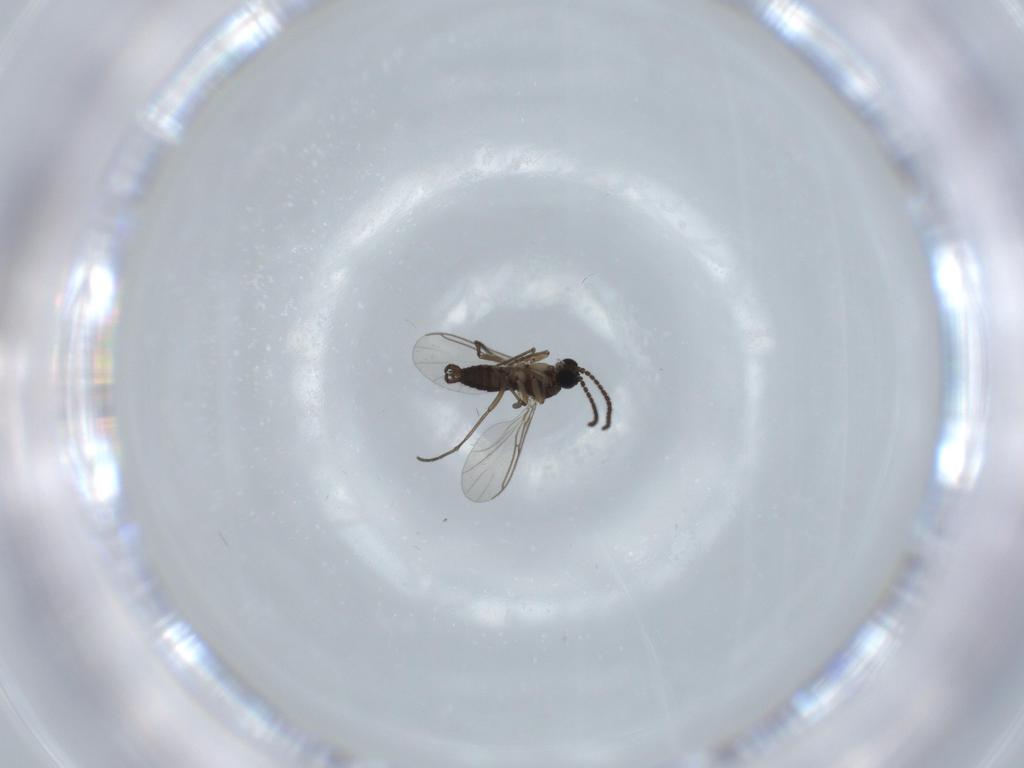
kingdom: Animalia
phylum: Arthropoda
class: Insecta
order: Diptera
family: Sciaridae
